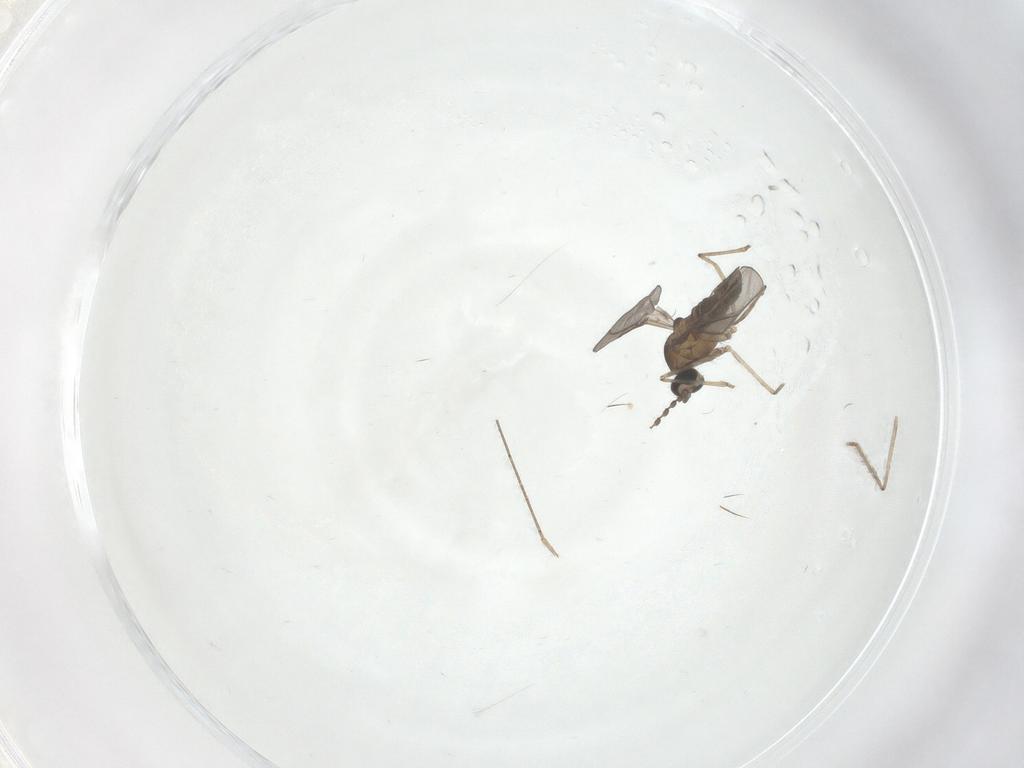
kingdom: Animalia
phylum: Arthropoda
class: Insecta
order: Diptera
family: Cecidomyiidae
